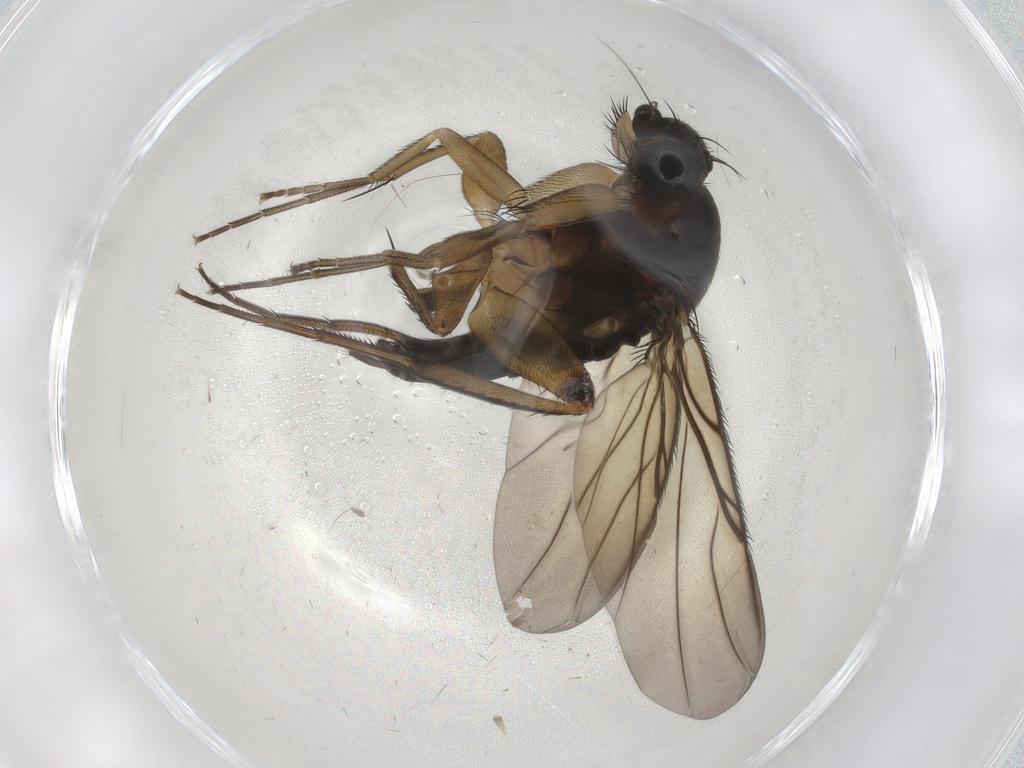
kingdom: Animalia
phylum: Arthropoda
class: Insecta
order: Diptera
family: Phoridae
